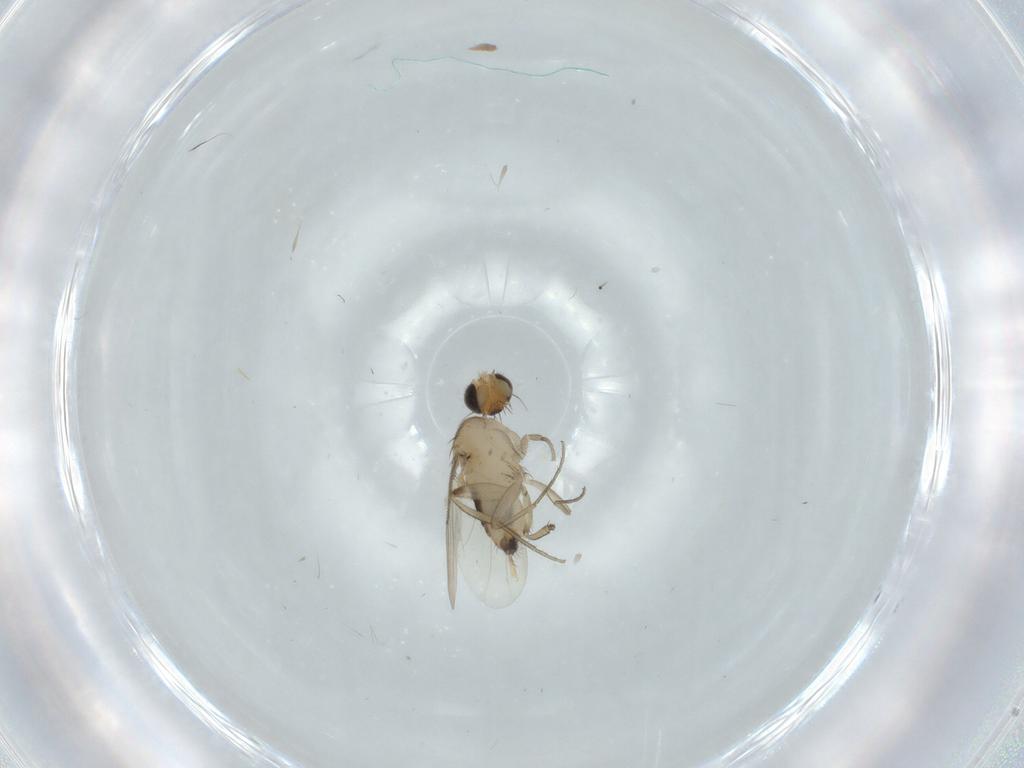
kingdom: Animalia
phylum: Arthropoda
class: Insecta
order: Diptera
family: Phoridae
